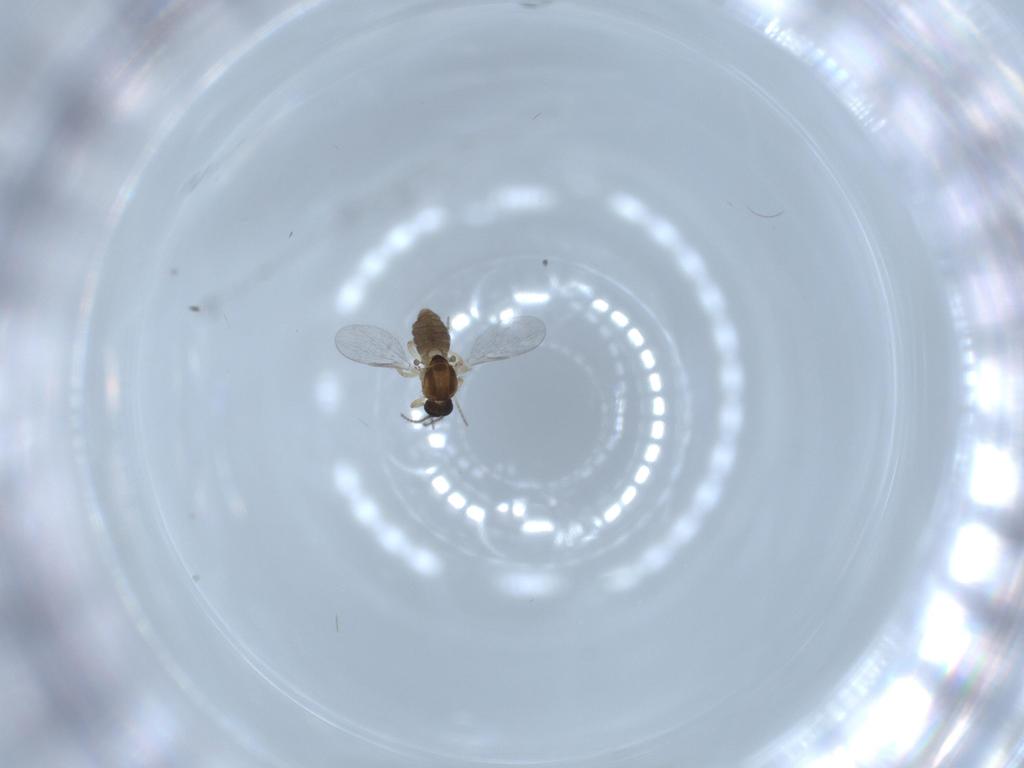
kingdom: Animalia
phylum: Arthropoda
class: Insecta
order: Diptera
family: Ceratopogonidae
